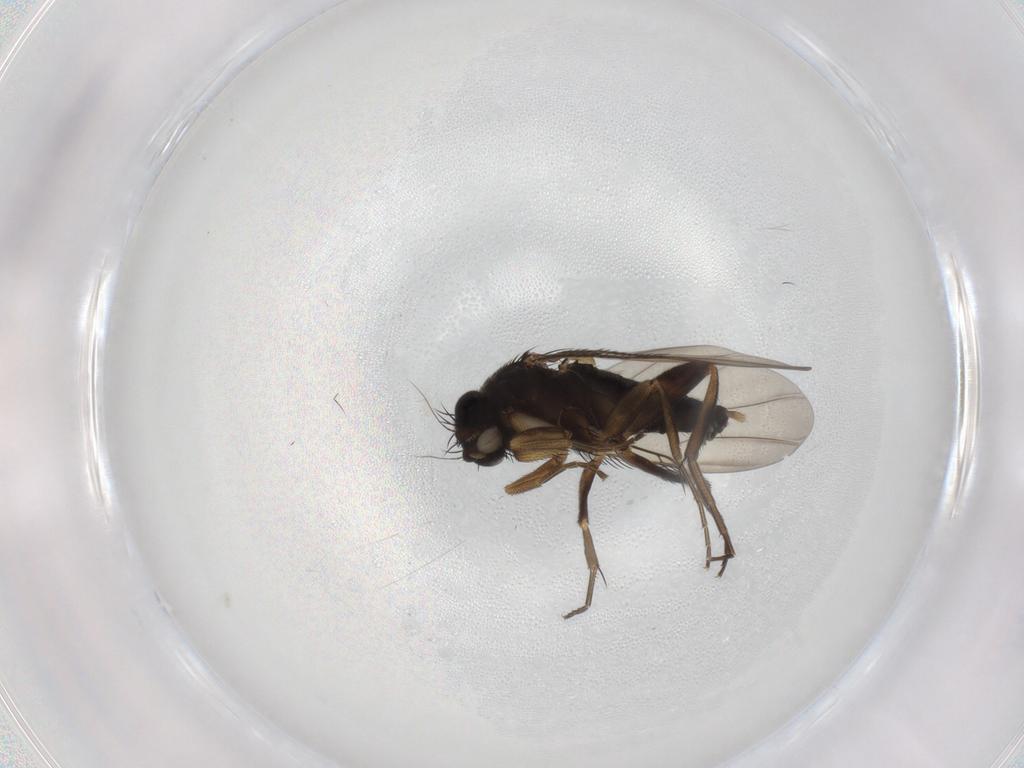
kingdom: Animalia
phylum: Arthropoda
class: Insecta
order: Diptera
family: Phoridae
